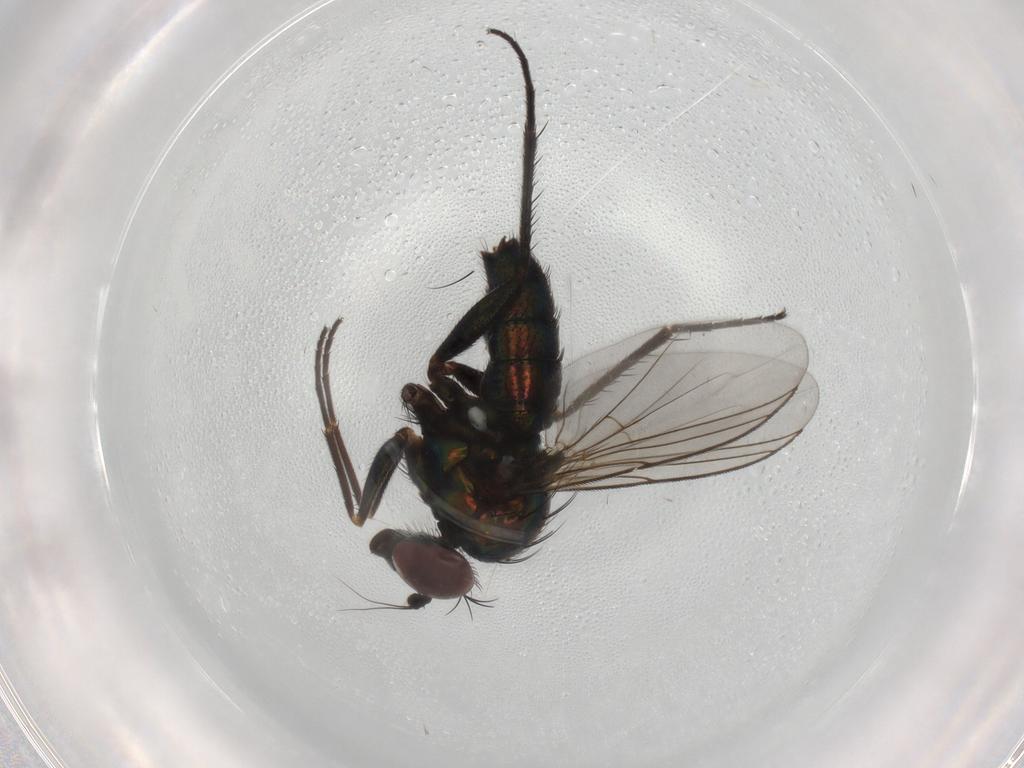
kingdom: Animalia
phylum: Arthropoda
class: Insecta
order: Diptera
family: Dolichopodidae
